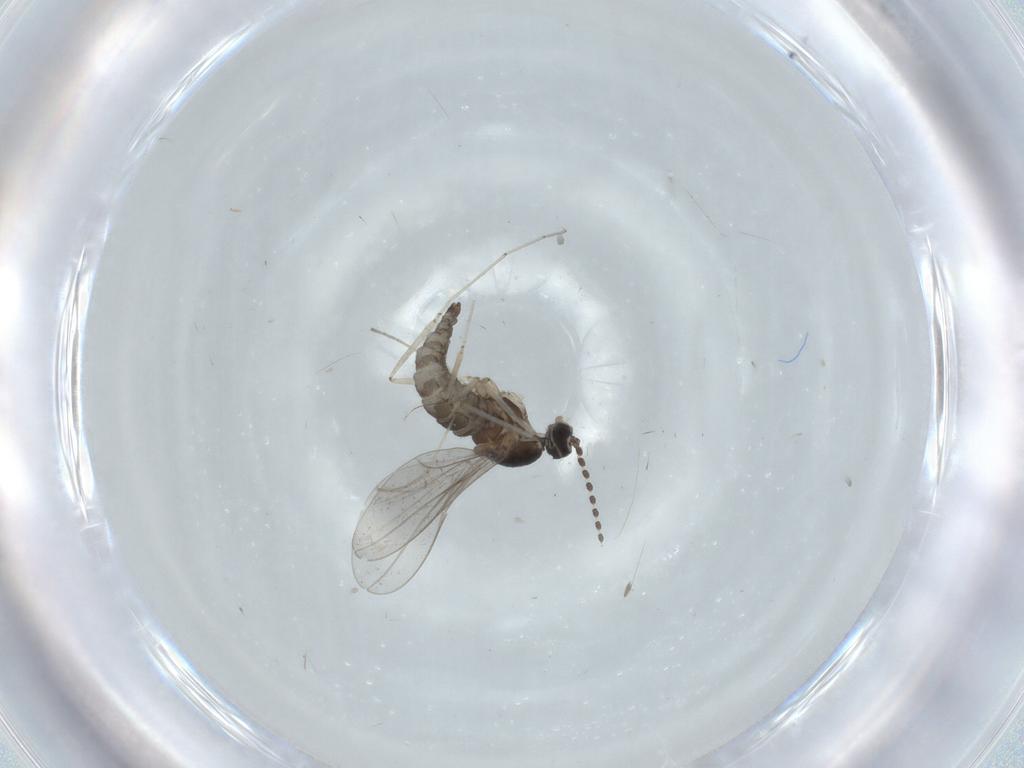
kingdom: Animalia
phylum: Arthropoda
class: Insecta
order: Diptera
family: Cecidomyiidae
